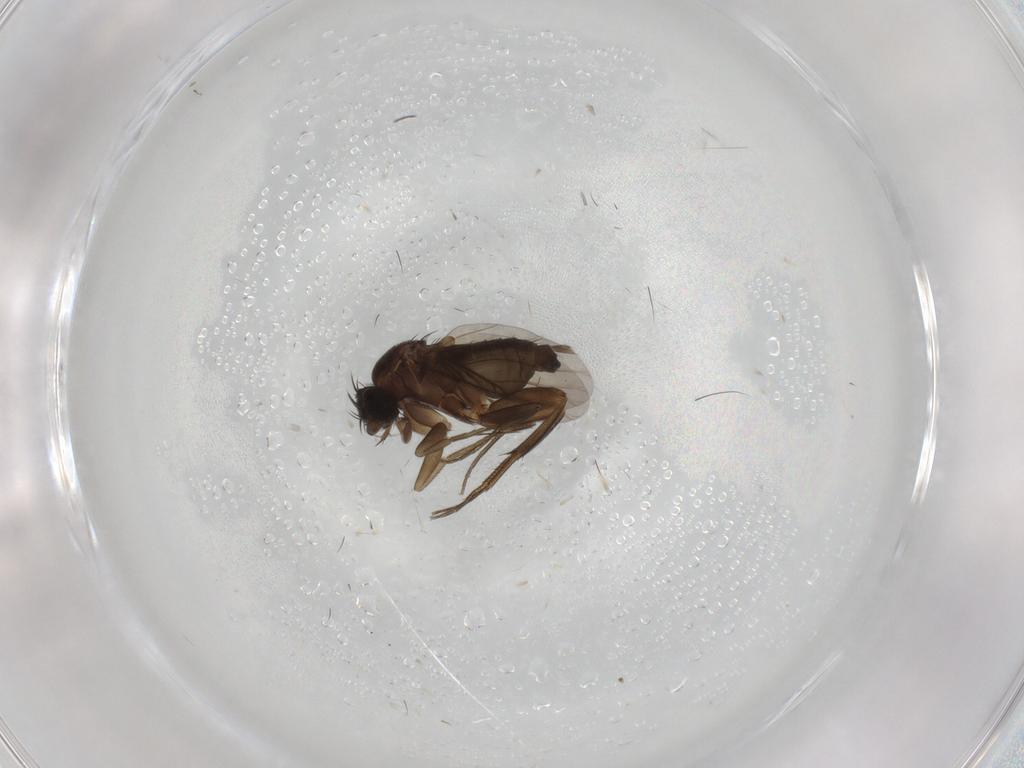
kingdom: Animalia
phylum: Arthropoda
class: Insecta
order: Diptera
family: Phoridae
